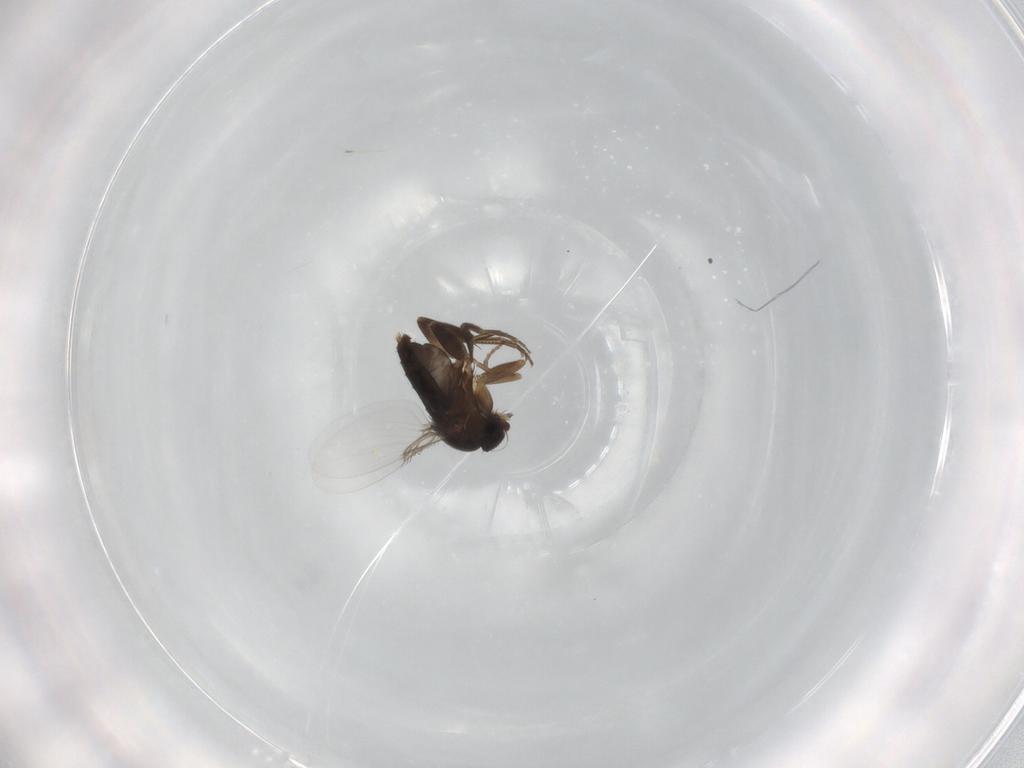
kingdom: Animalia
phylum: Arthropoda
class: Insecta
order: Diptera
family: Phoridae
